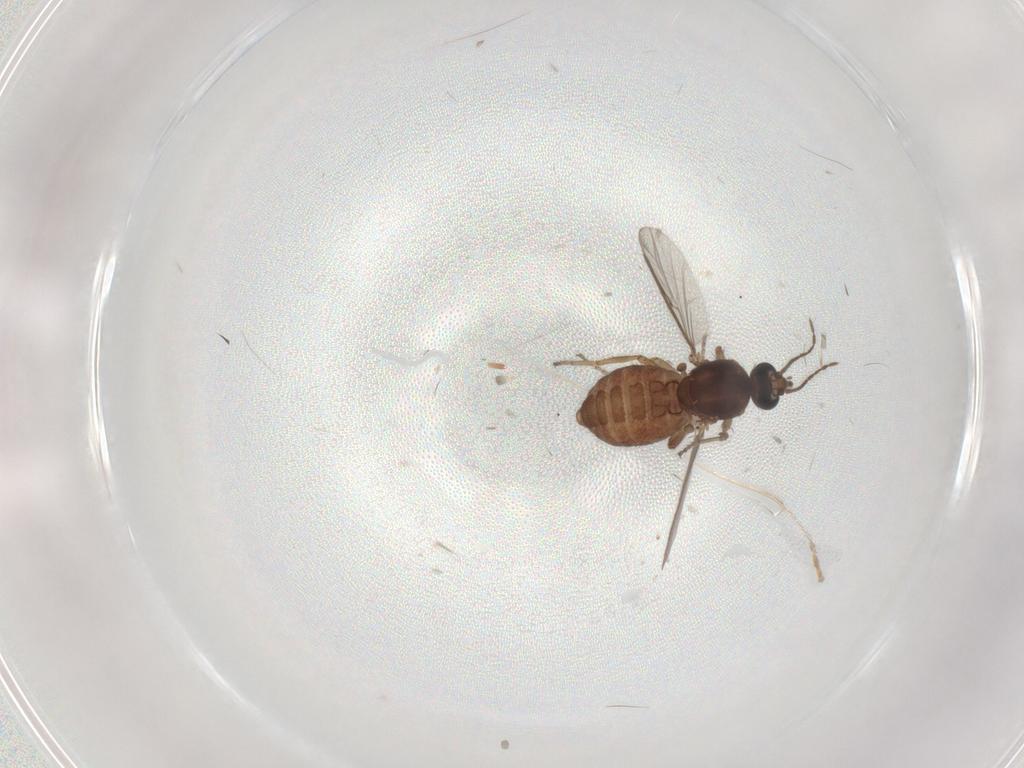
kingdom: Animalia
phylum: Arthropoda
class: Insecta
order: Diptera
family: Ceratopogonidae
